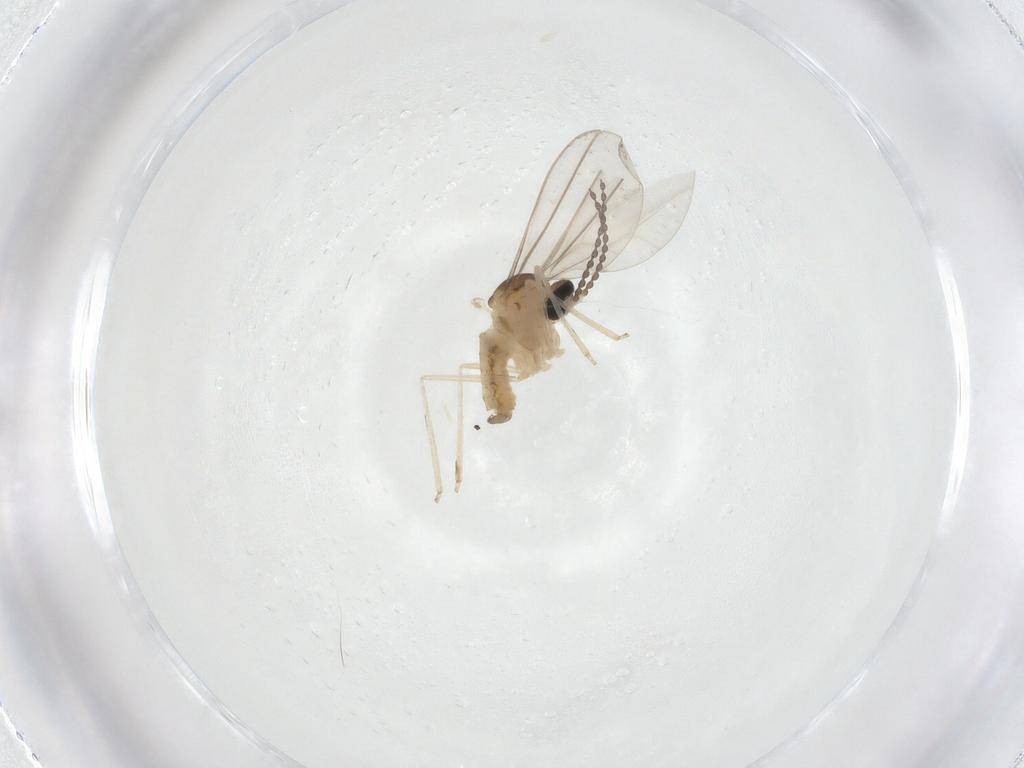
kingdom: Animalia
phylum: Arthropoda
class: Insecta
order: Diptera
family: Cecidomyiidae
